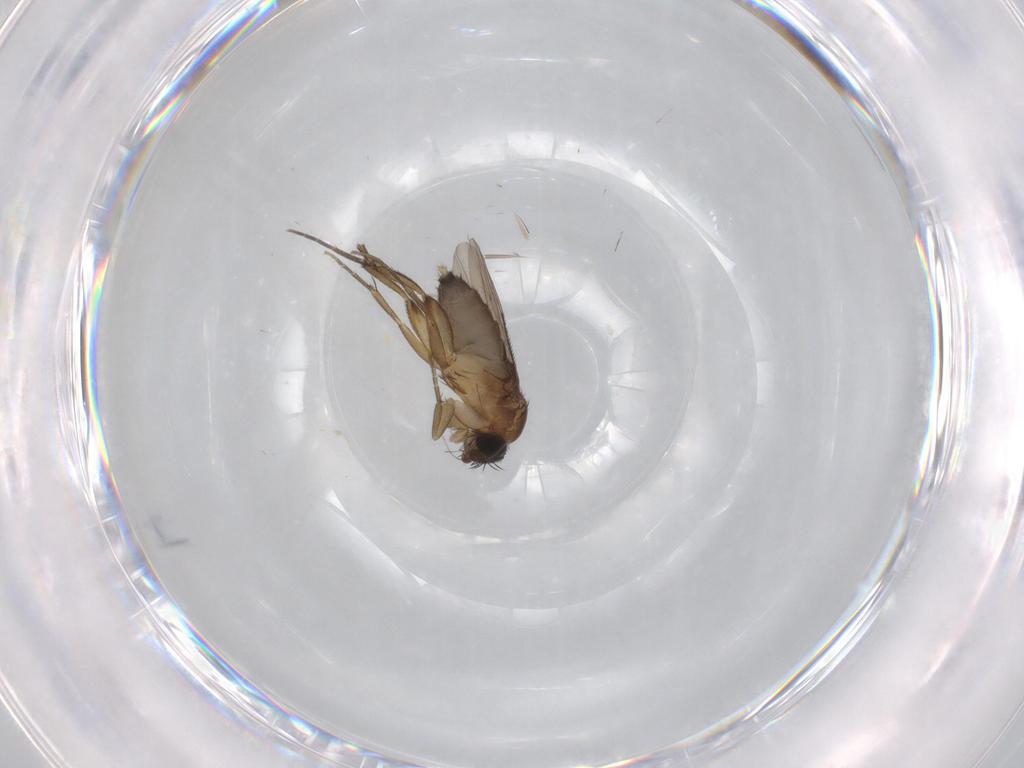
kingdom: Animalia
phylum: Arthropoda
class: Insecta
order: Diptera
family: Phoridae
